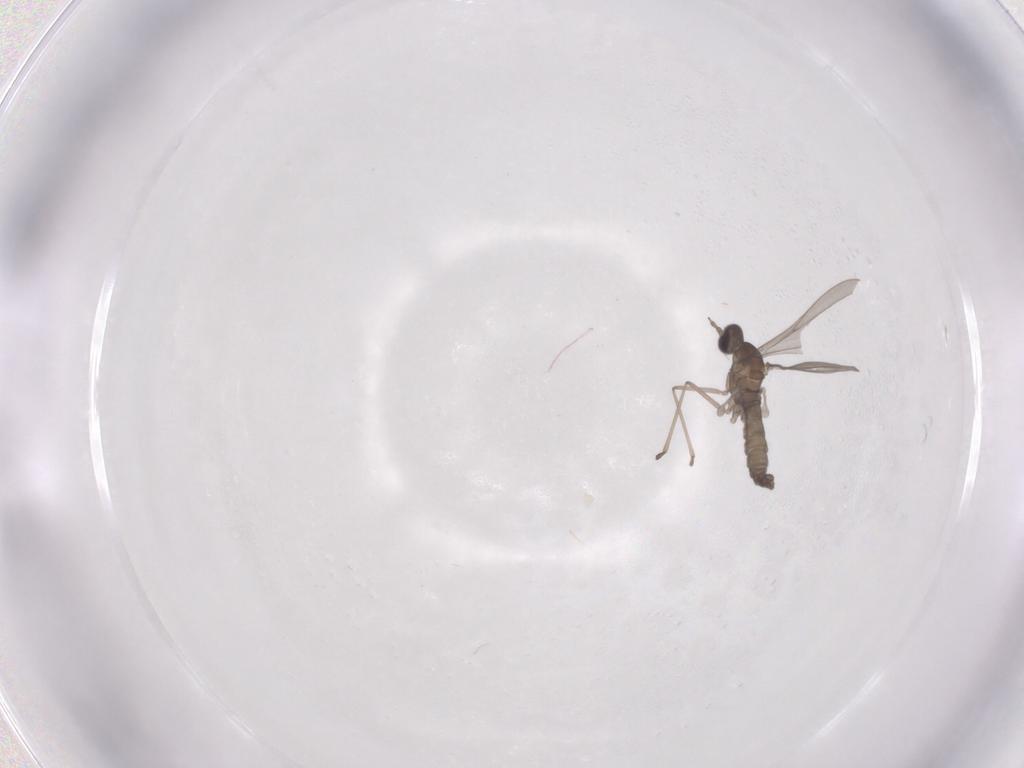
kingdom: Animalia
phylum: Arthropoda
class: Insecta
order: Diptera
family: Cecidomyiidae
